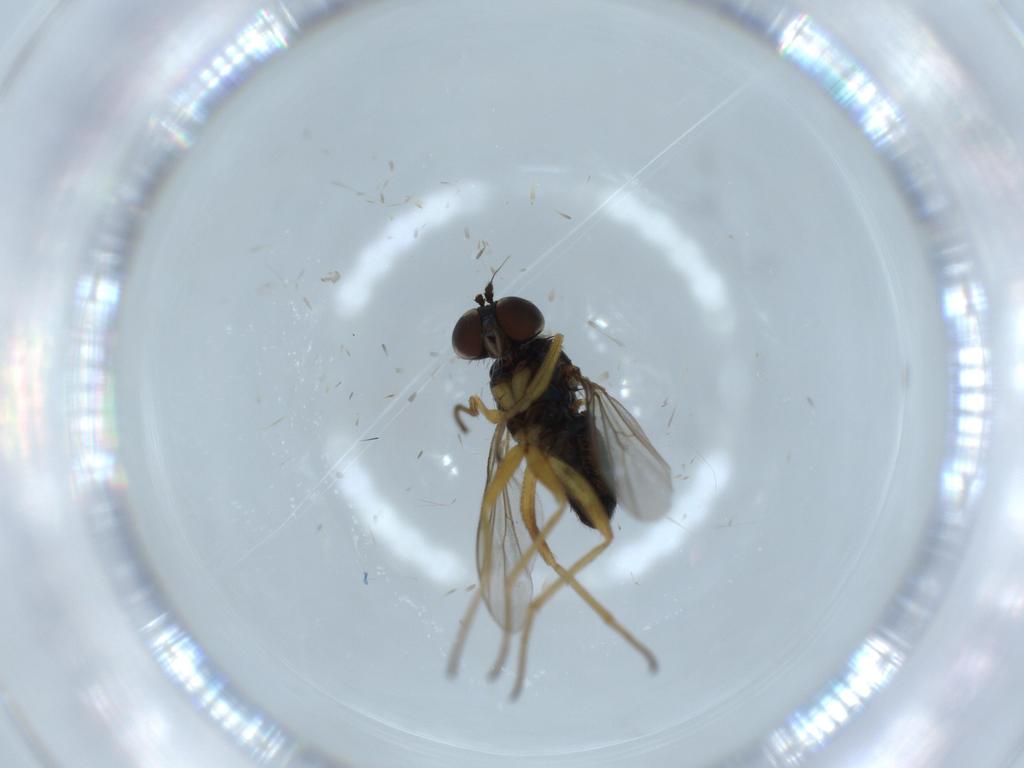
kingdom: Animalia
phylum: Arthropoda
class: Insecta
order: Diptera
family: Dolichopodidae
